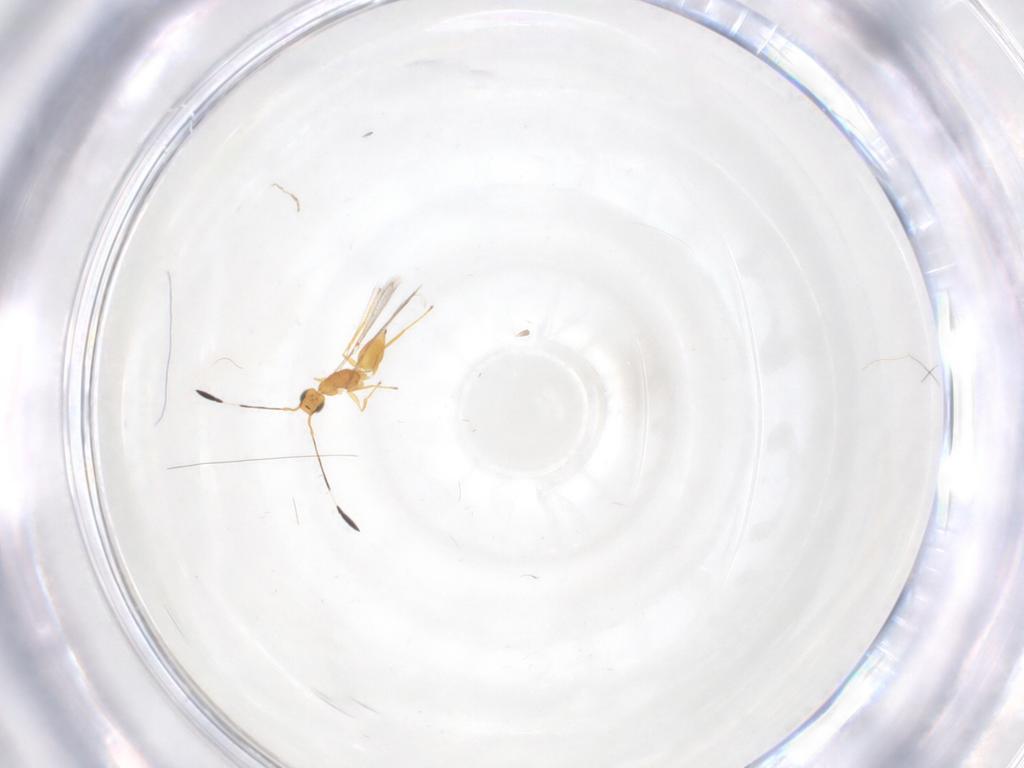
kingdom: Animalia
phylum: Arthropoda
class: Insecta
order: Hymenoptera
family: Mymaridae
